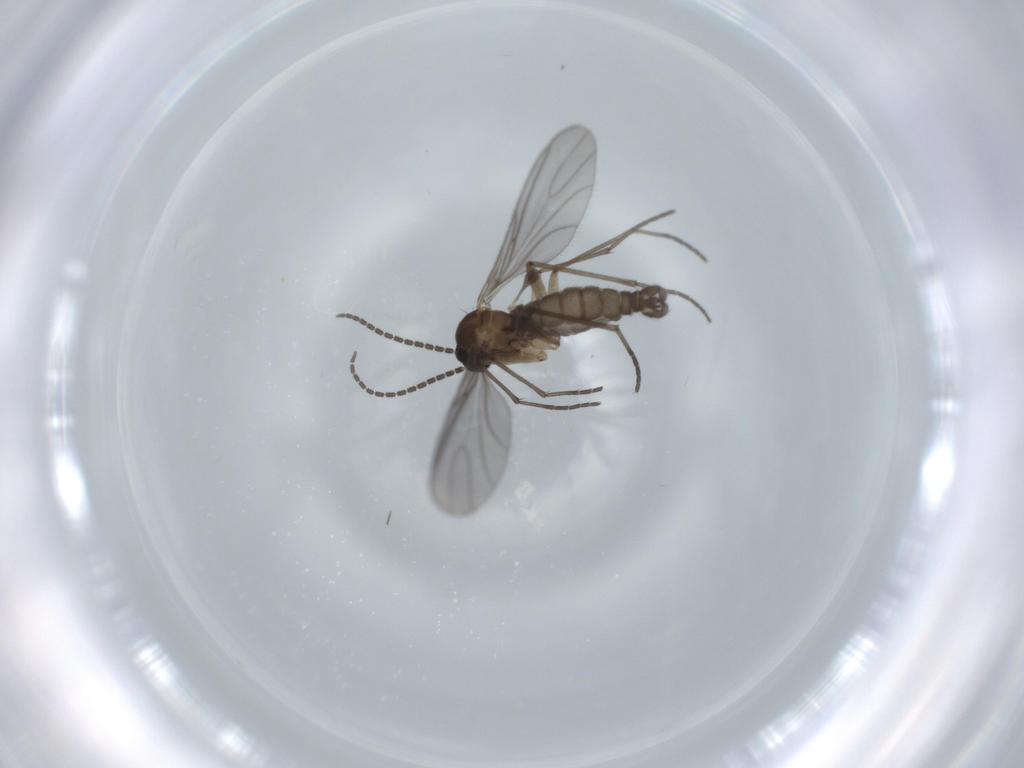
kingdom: Animalia
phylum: Arthropoda
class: Insecta
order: Diptera
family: Sciaridae
